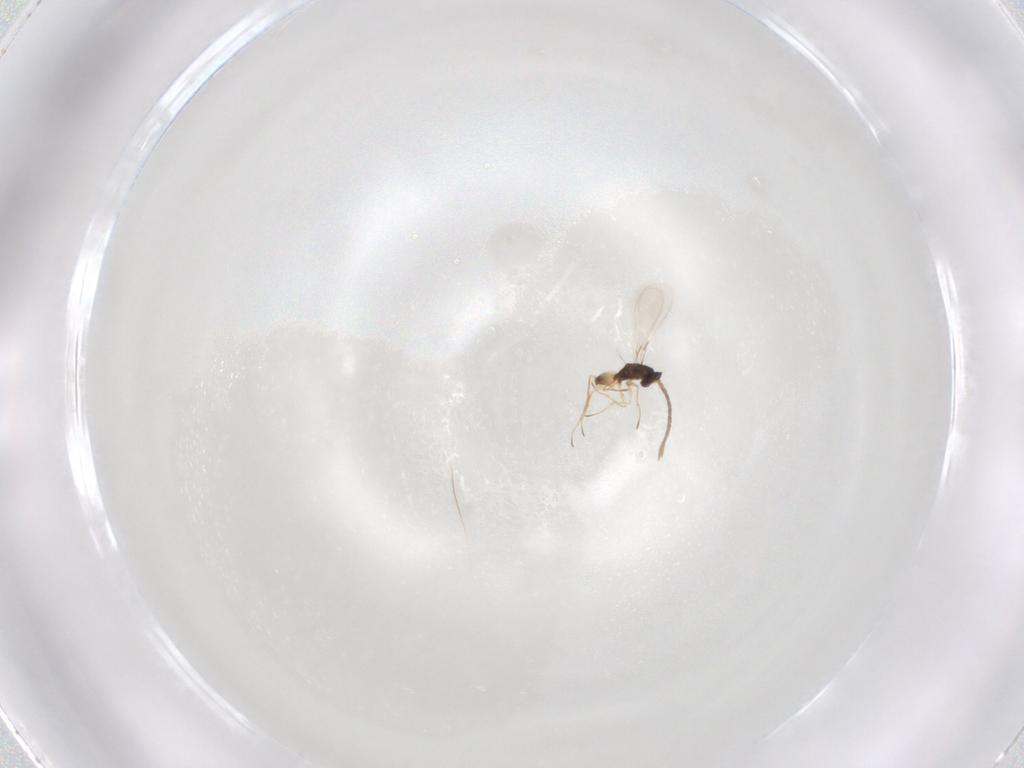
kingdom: Animalia
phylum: Arthropoda
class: Insecta
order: Hymenoptera
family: Mymaridae
